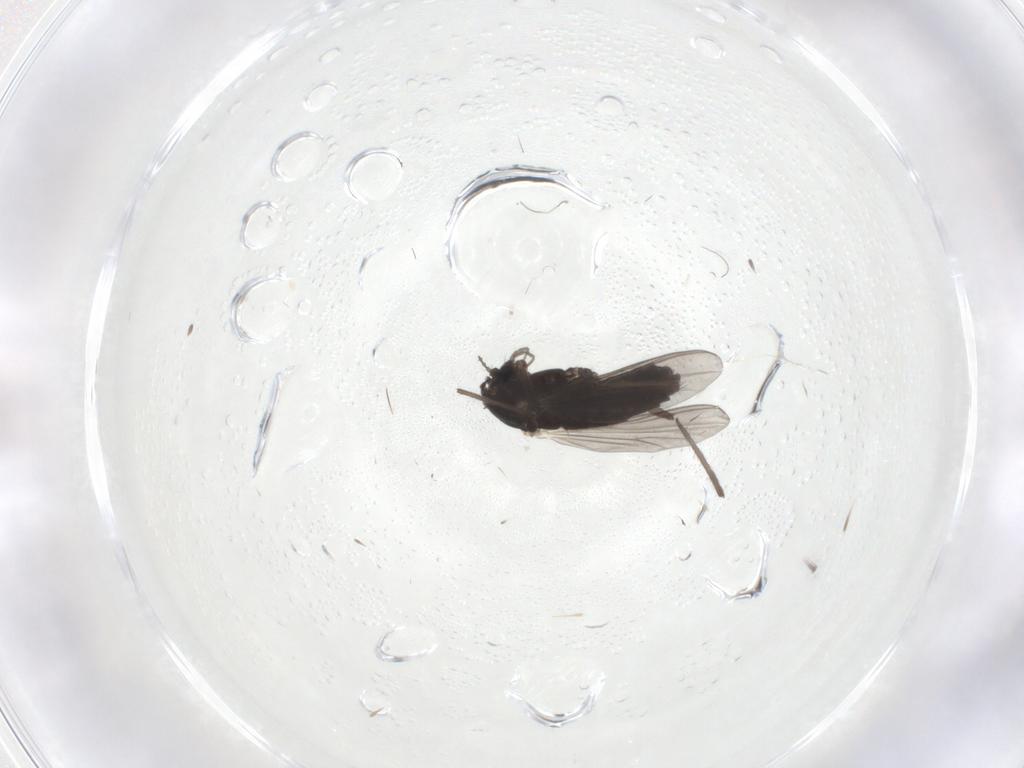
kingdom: Animalia
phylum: Arthropoda
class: Insecta
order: Diptera
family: Chironomidae
